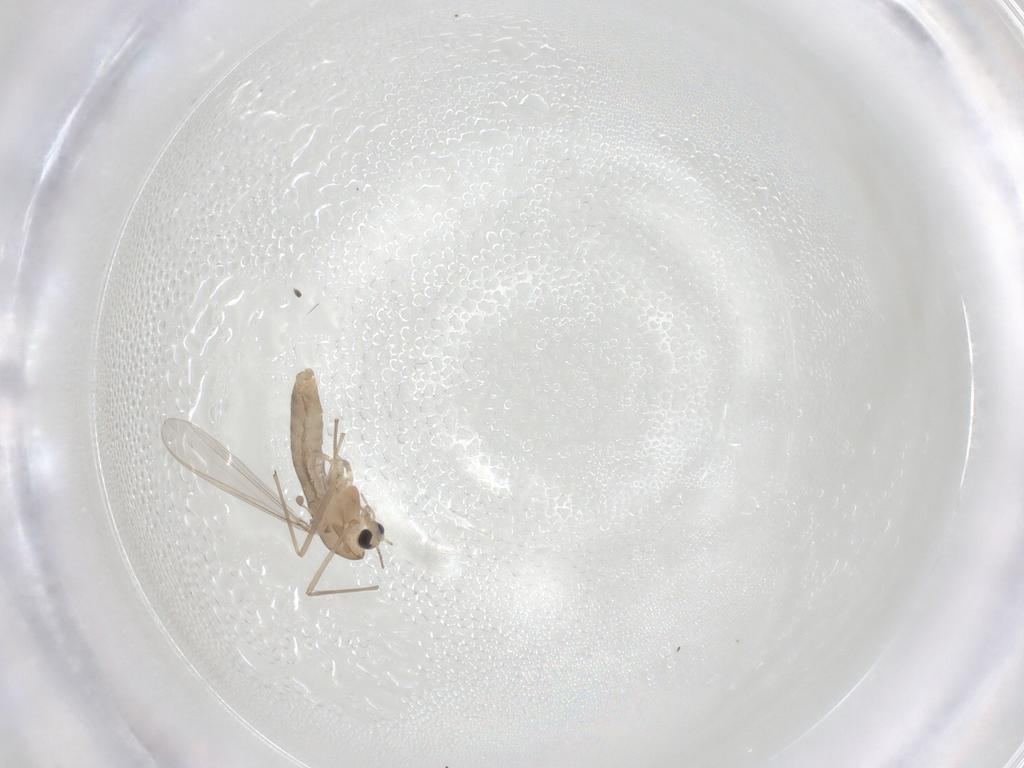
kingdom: Animalia
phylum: Arthropoda
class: Insecta
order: Diptera
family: Chironomidae
